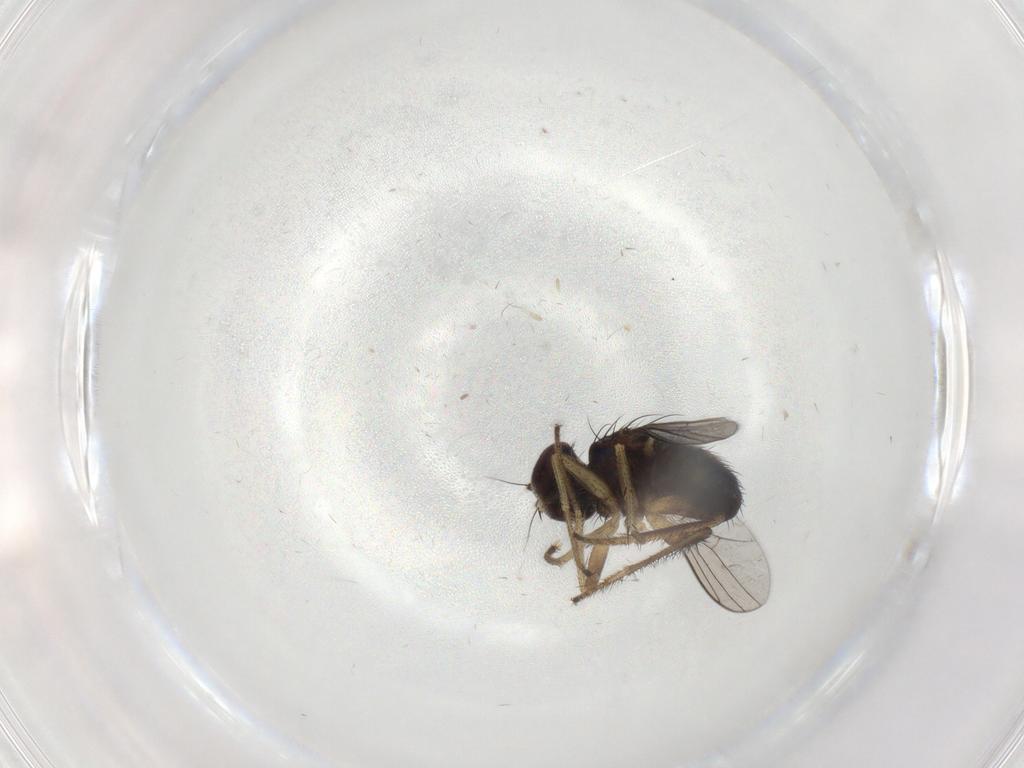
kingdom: Animalia
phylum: Arthropoda
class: Insecta
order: Diptera
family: Dolichopodidae
